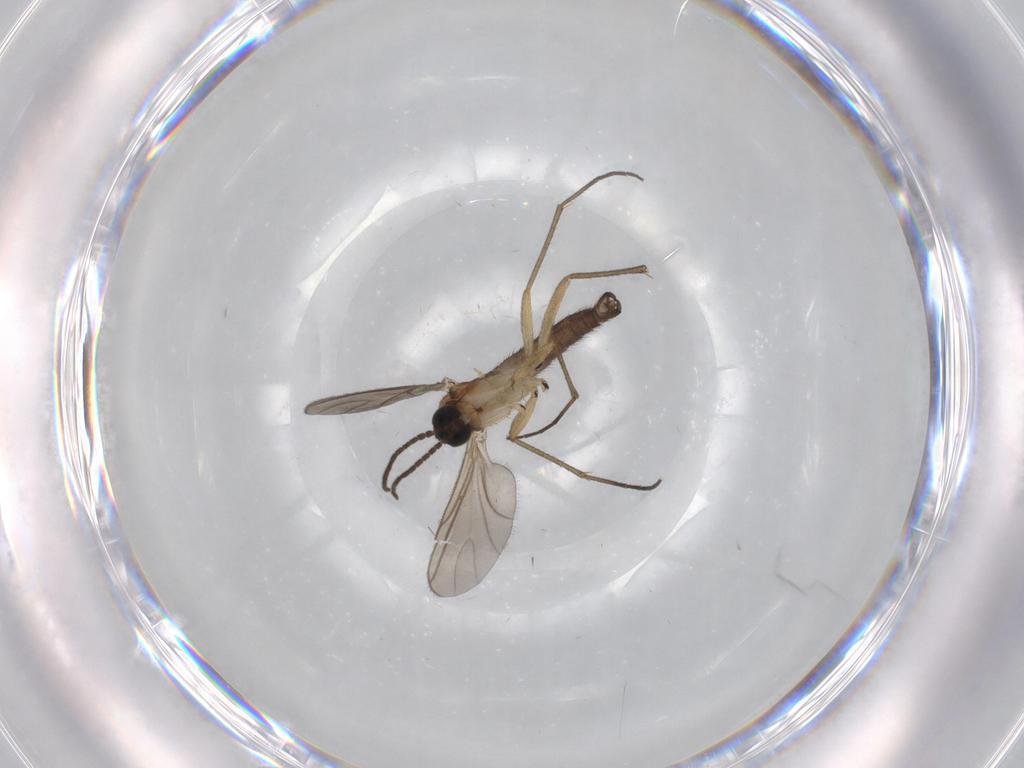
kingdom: Animalia
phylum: Arthropoda
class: Insecta
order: Diptera
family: Cecidomyiidae
